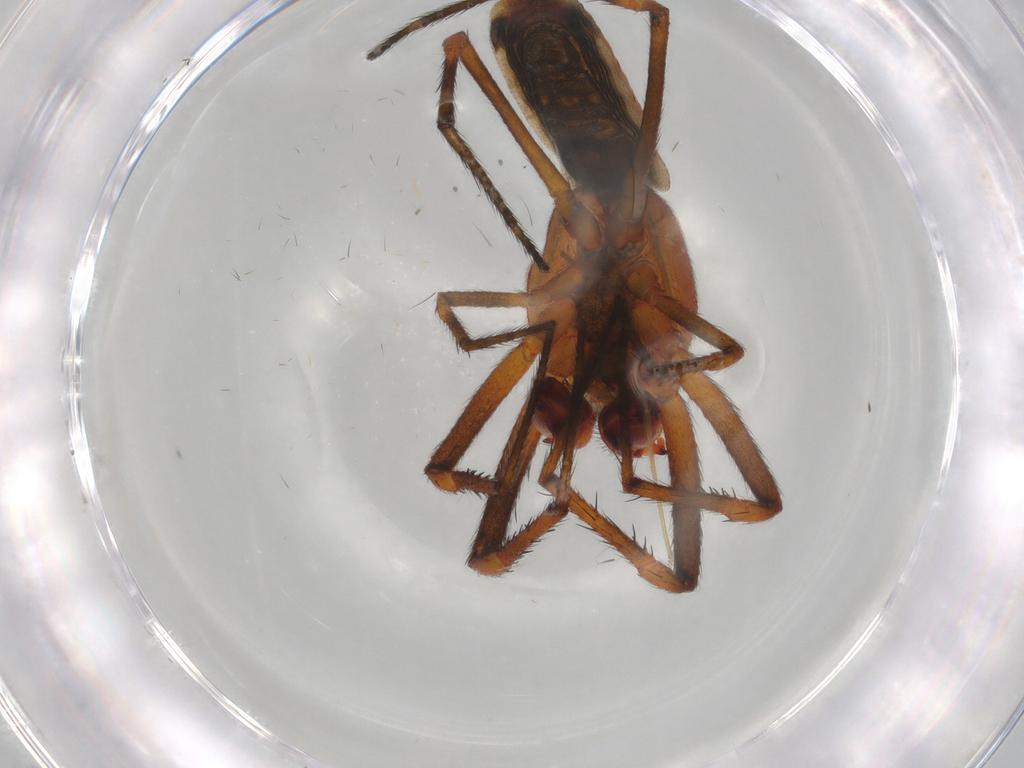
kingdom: Animalia
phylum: Arthropoda
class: Insecta
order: Diptera
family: Chironomidae
